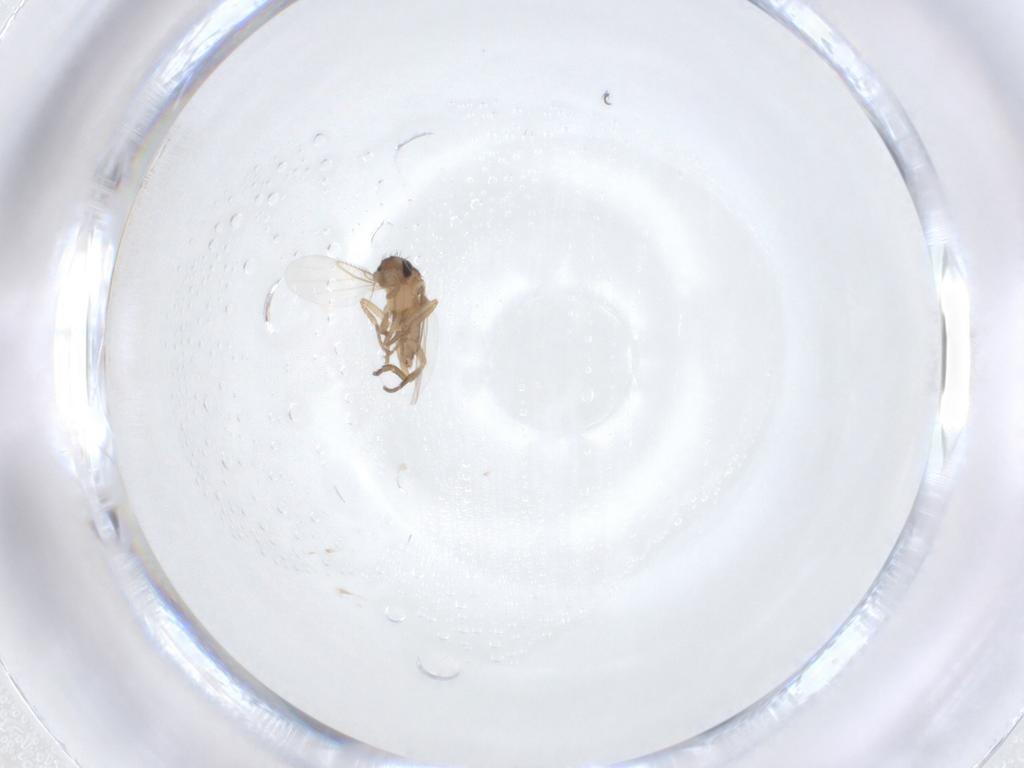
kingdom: Animalia
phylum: Arthropoda
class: Insecta
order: Diptera
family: Phoridae
